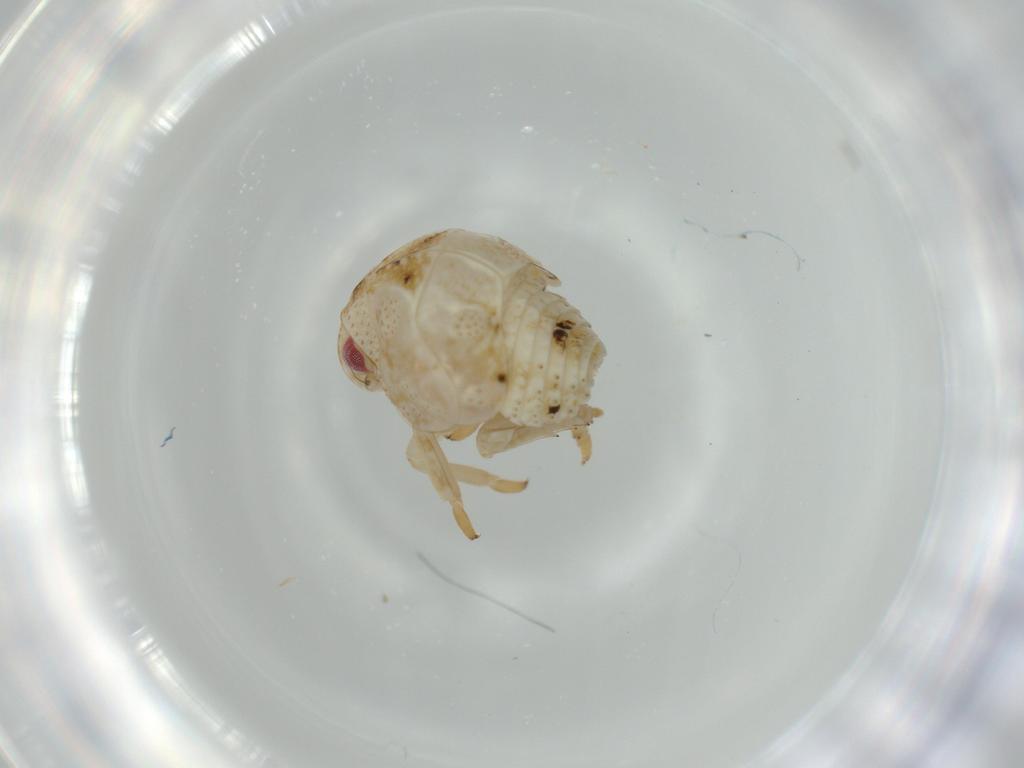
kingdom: Animalia
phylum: Arthropoda
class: Insecta
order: Hemiptera
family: Acanaloniidae
